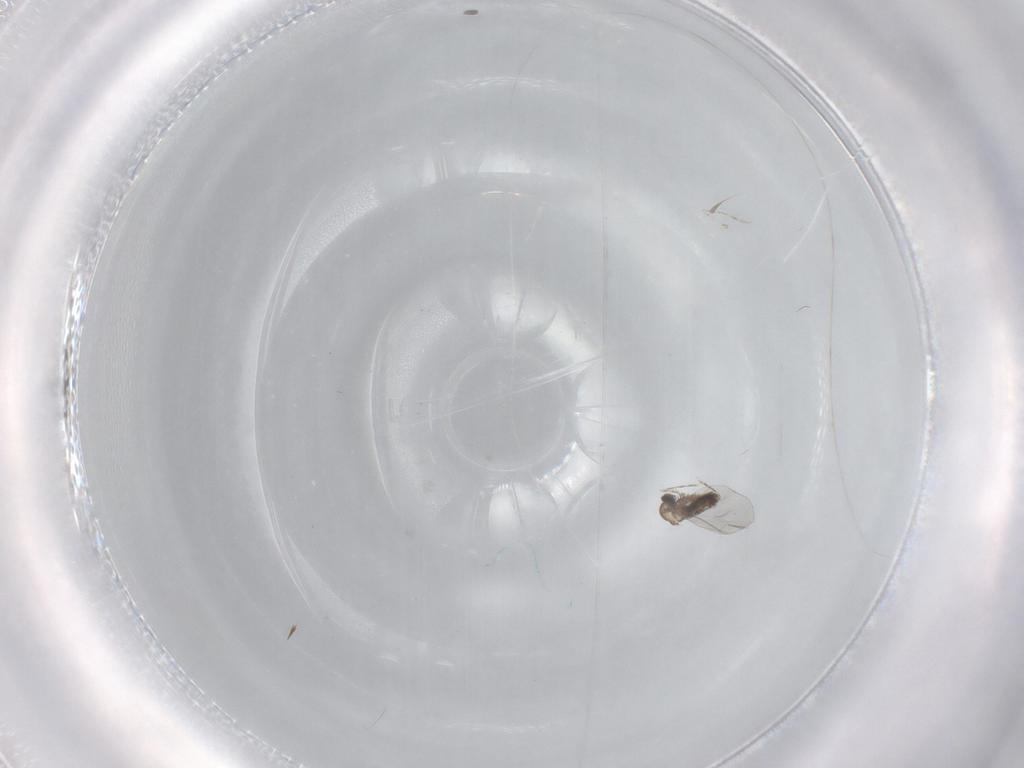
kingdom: Animalia
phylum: Arthropoda
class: Insecta
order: Diptera
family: Cecidomyiidae
